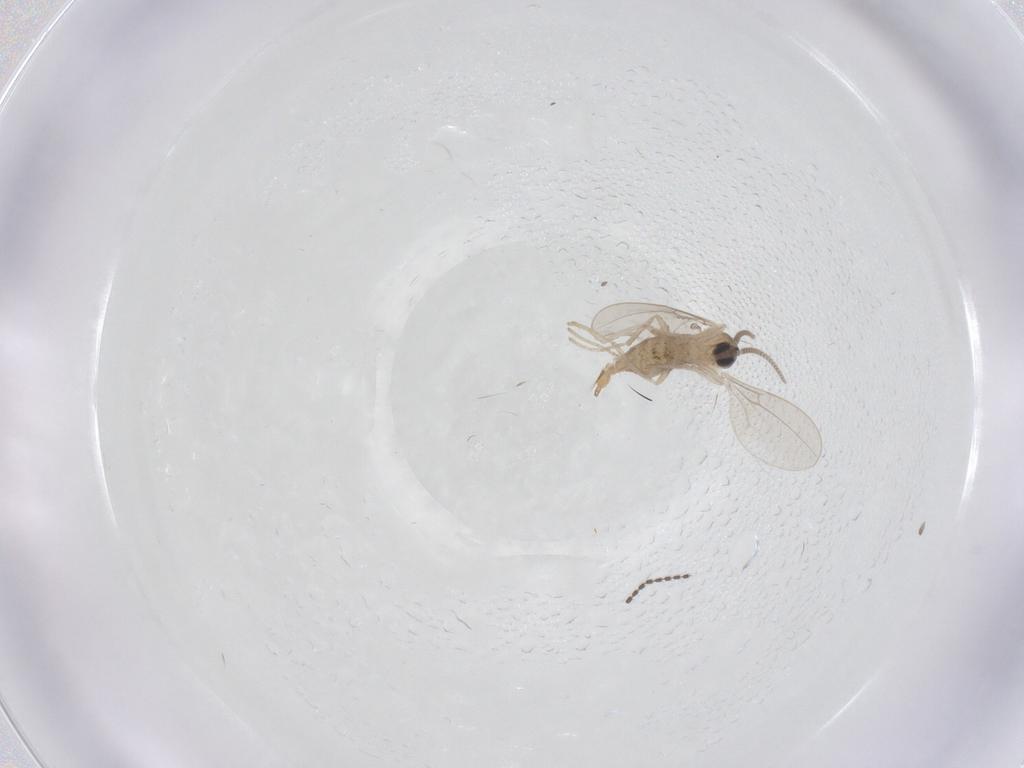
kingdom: Animalia
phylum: Arthropoda
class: Insecta
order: Diptera
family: Cecidomyiidae
